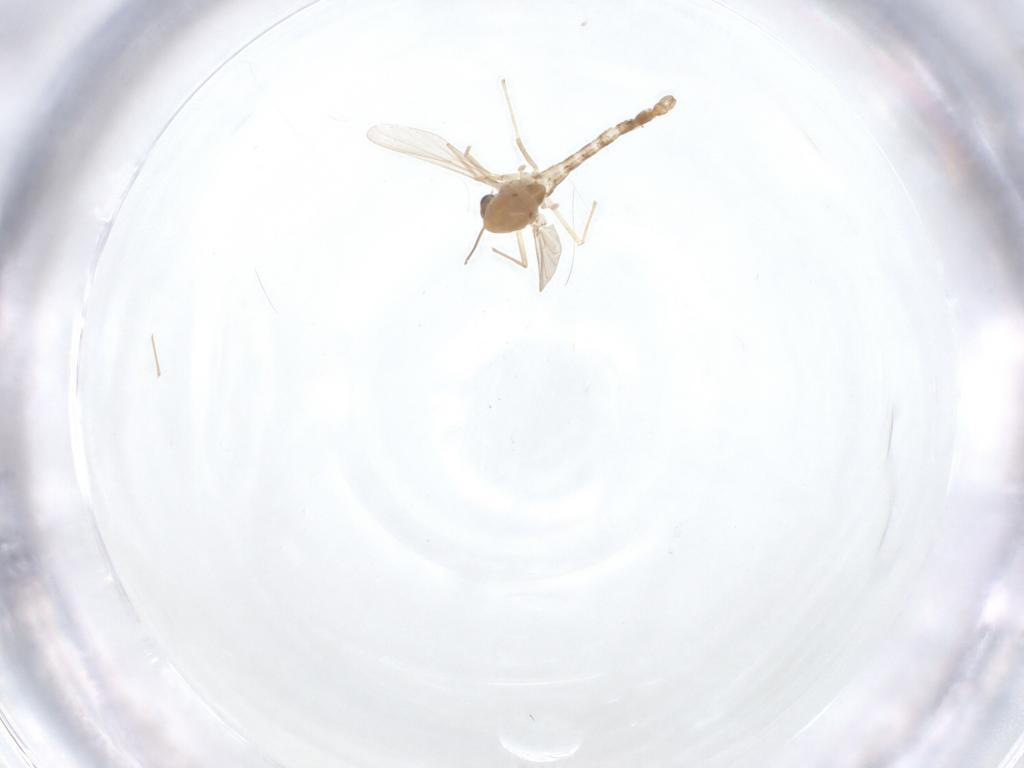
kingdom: Animalia
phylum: Arthropoda
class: Insecta
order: Diptera
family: Chironomidae
